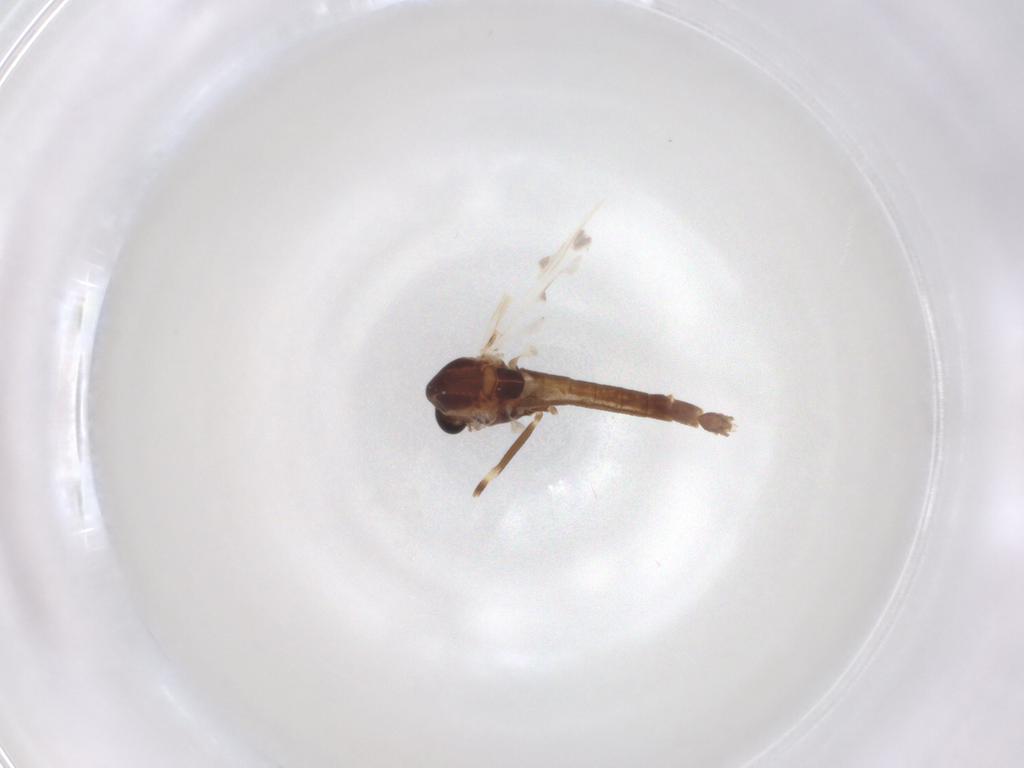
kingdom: Animalia
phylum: Arthropoda
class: Insecta
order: Diptera
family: Chironomidae
